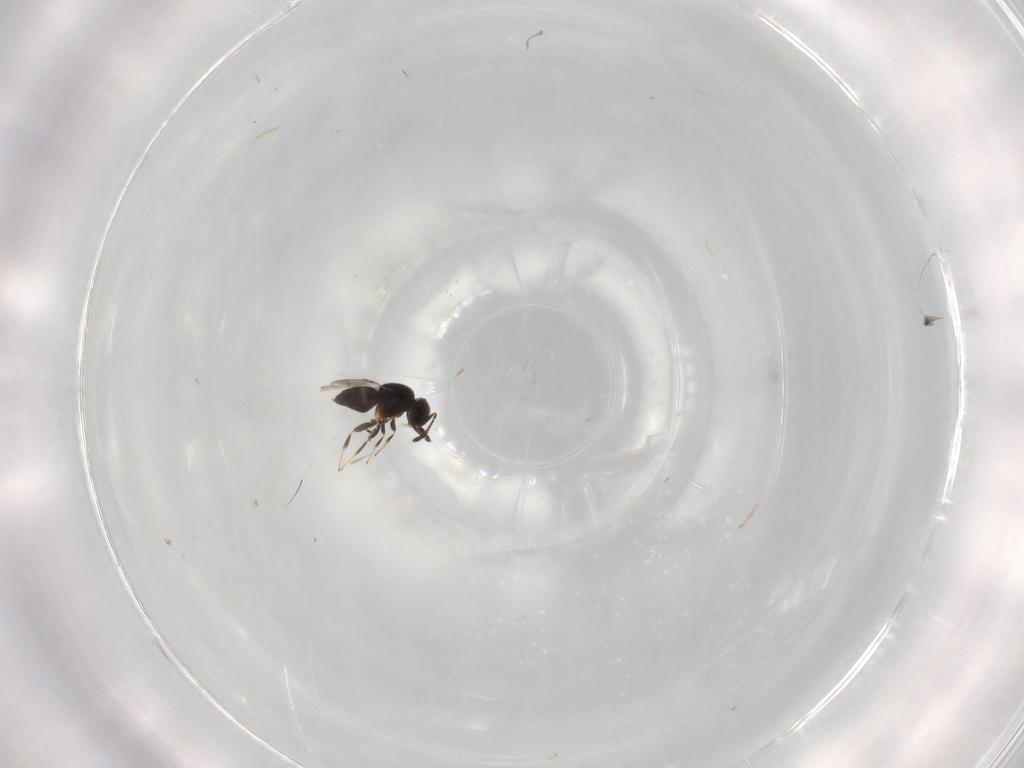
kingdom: Animalia
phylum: Arthropoda
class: Insecta
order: Hymenoptera
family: Ceraphronidae
